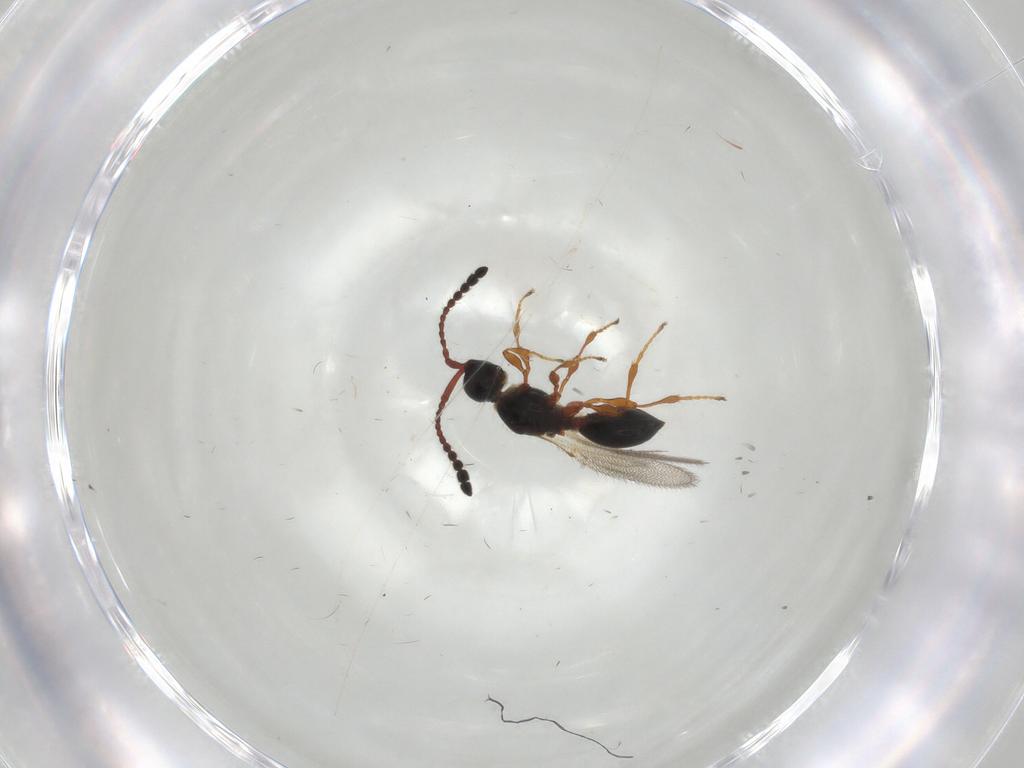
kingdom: Animalia
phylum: Arthropoda
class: Insecta
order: Hymenoptera
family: Diapriidae
